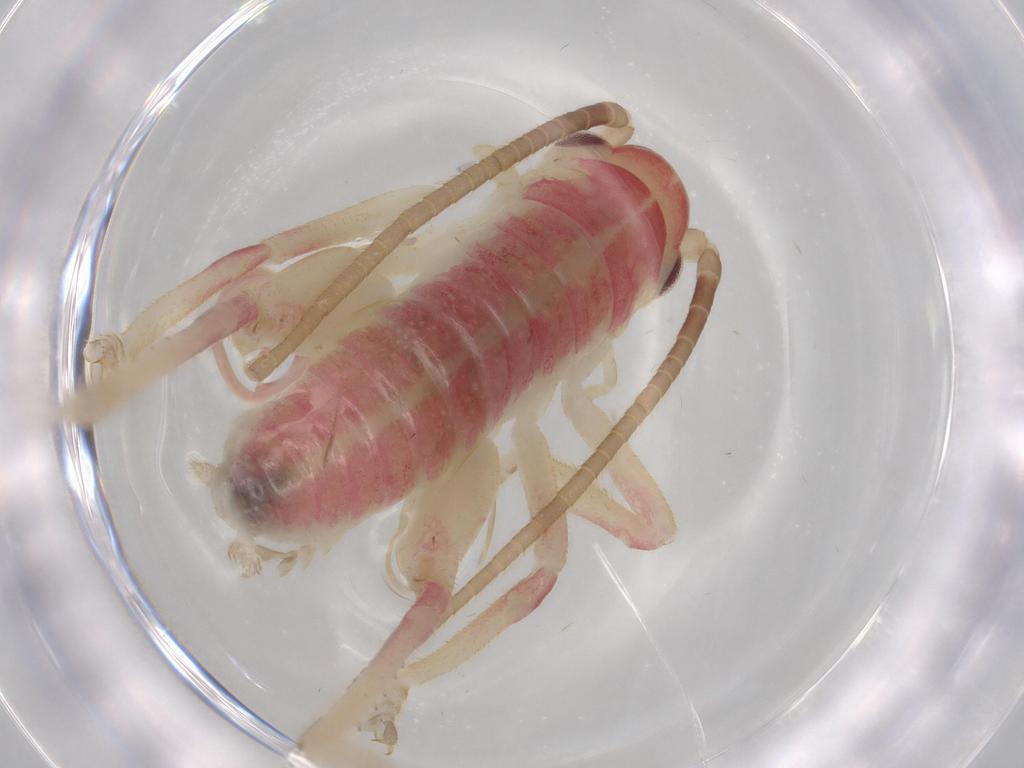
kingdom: Animalia
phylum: Arthropoda
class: Insecta
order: Orthoptera
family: Gryllacrididae
